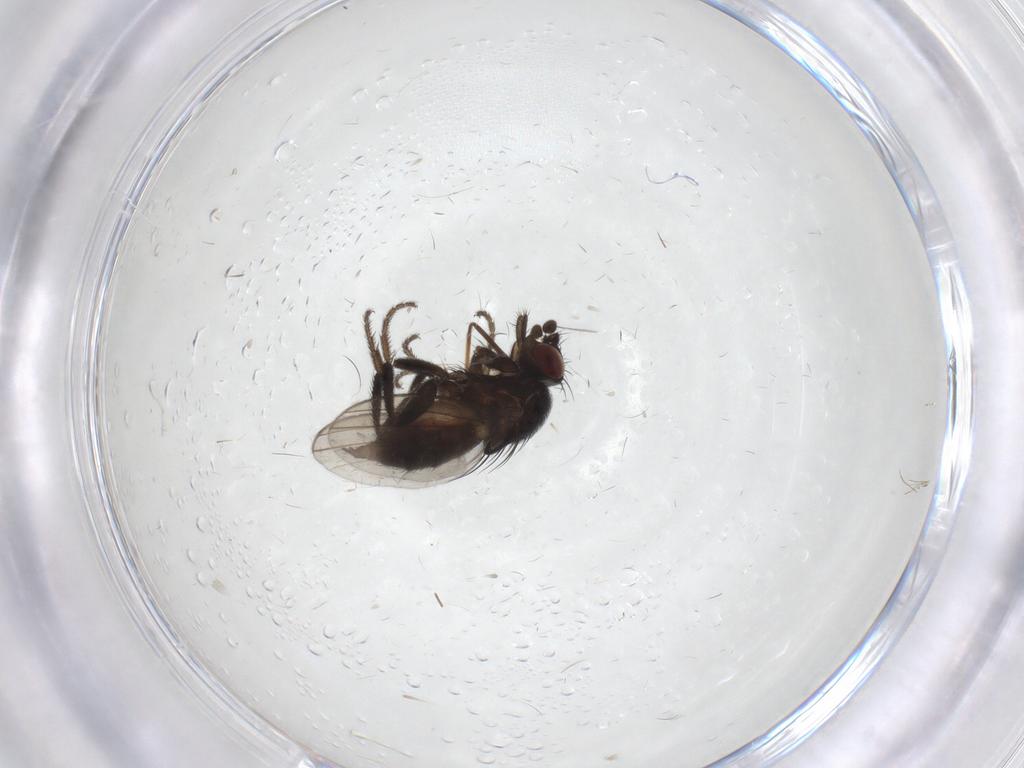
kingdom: Animalia
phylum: Arthropoda
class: Insecta
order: Diptera
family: Milichiidae
